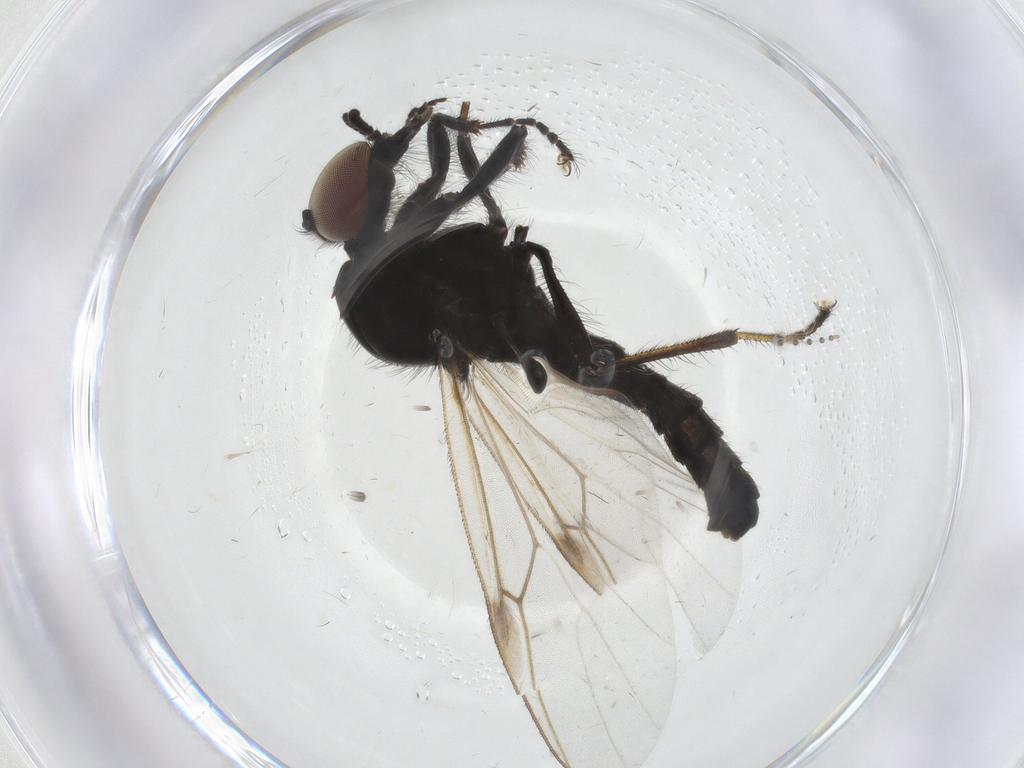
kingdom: Animalia
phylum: Arthropoda
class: Insecta
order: Diptera
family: Bibionidae
